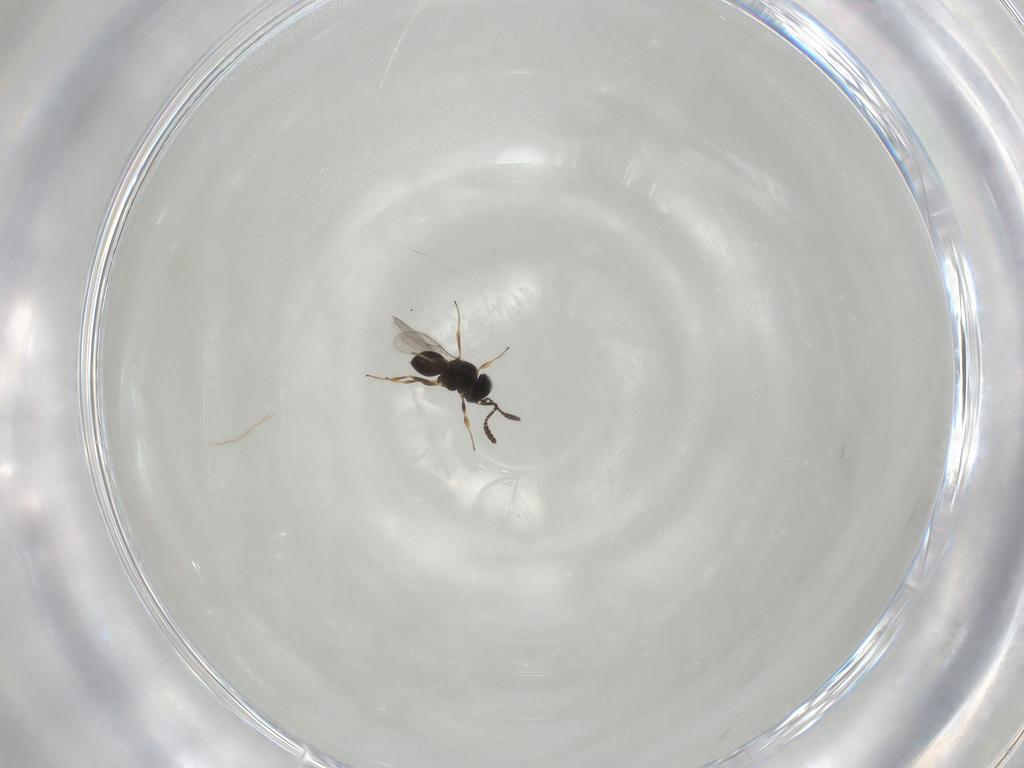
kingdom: Animalia
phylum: Arthropoda
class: Insecta
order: Hymenoptera
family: Scelionidae
